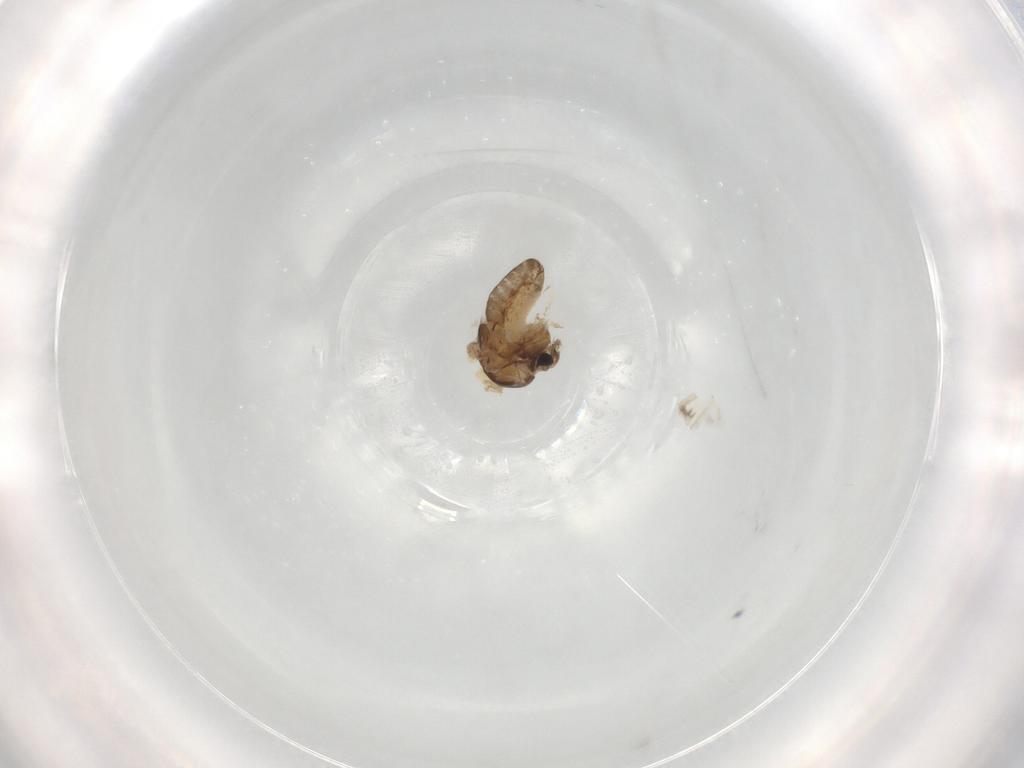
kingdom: Animalia
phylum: Arthropoda
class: Insecta
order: Diptera
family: Chironomidae
